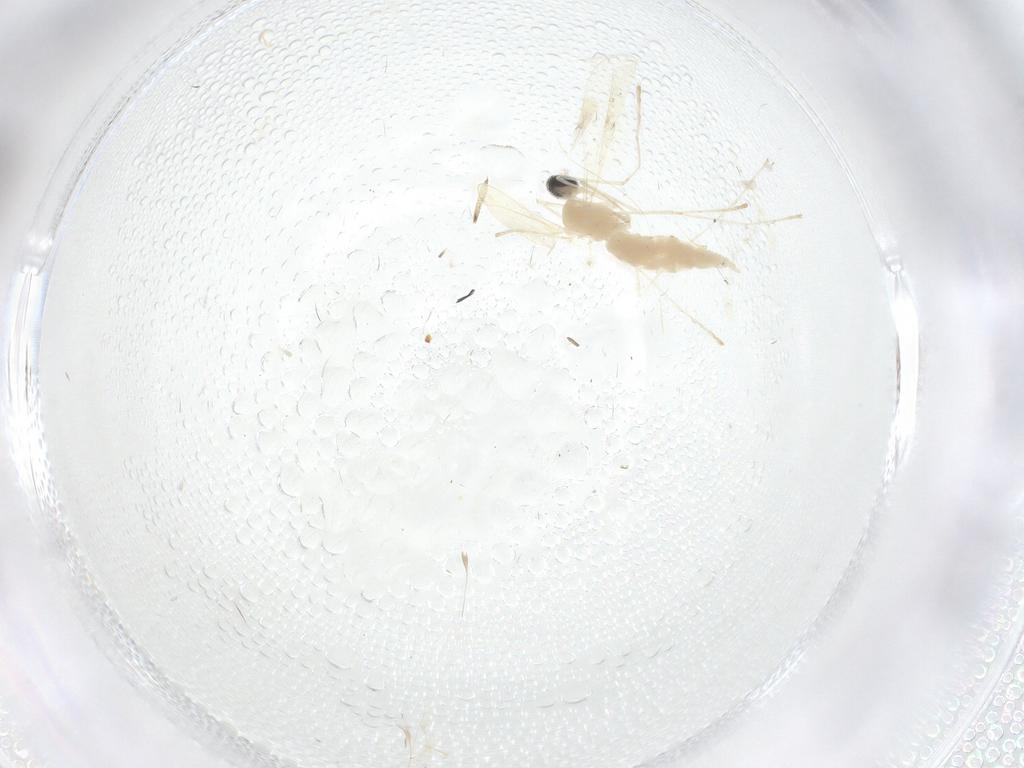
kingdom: Animalia
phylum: Arthropoda
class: Insecta
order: Diptera
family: Cecidomyiidae
